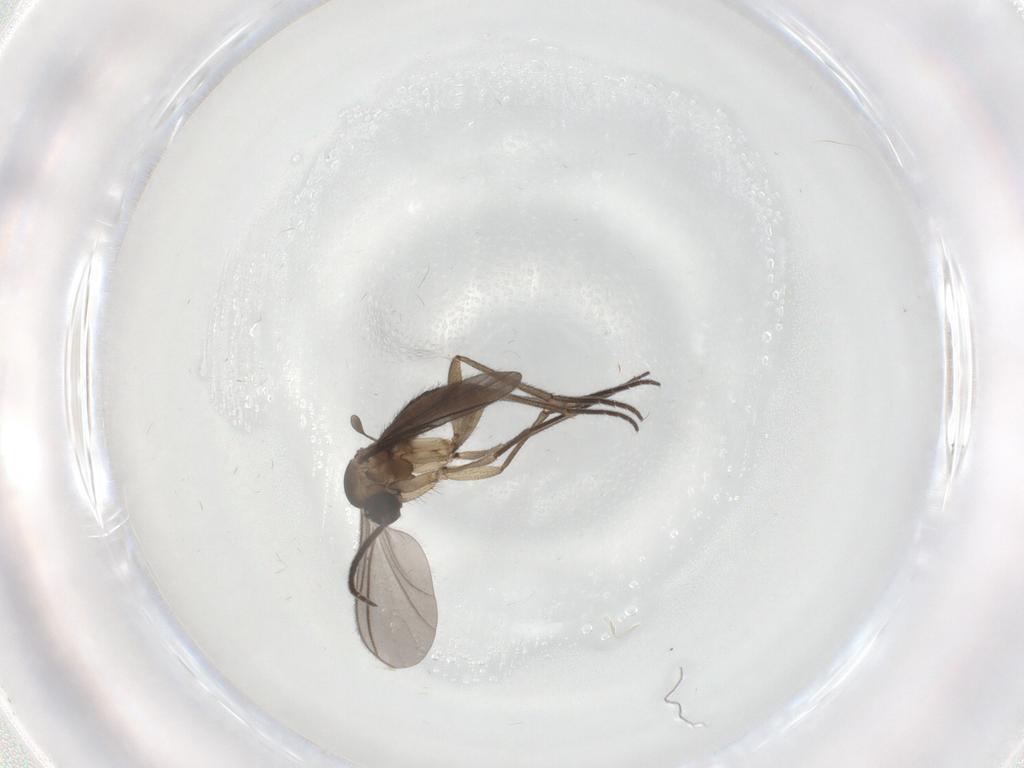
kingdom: Animalia
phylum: Arthropoda
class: Insecta
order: Diptera
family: Sciaridae
